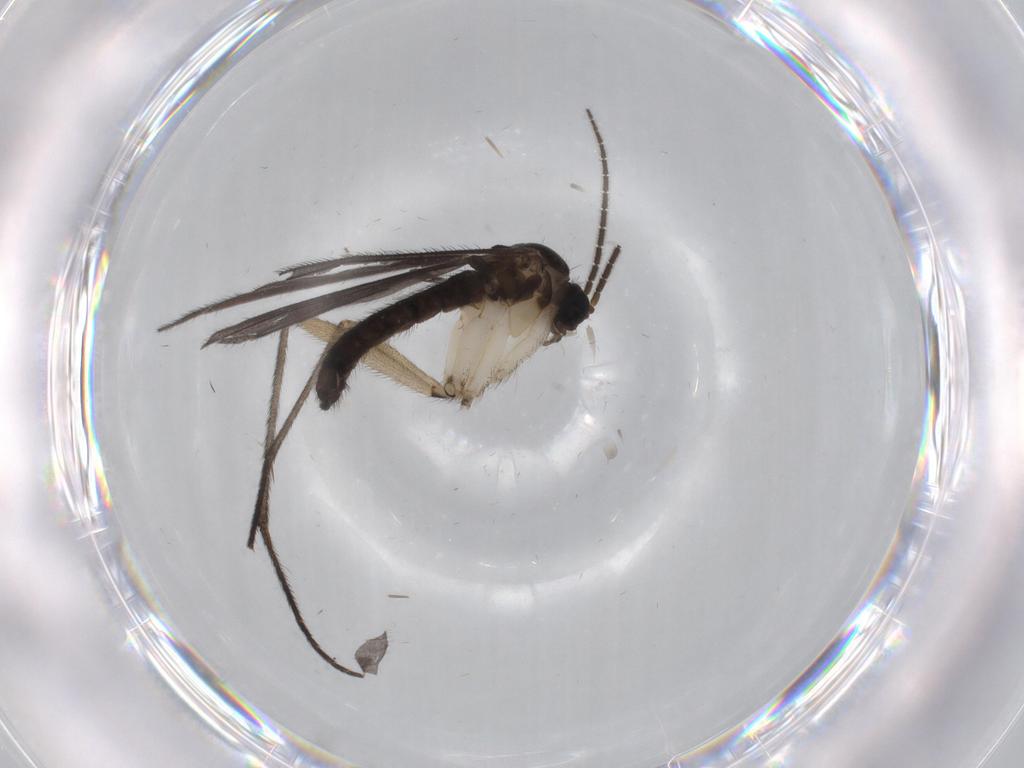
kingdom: Animalia
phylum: Arthropoda
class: Insecta
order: Diptera
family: Sciaridae
